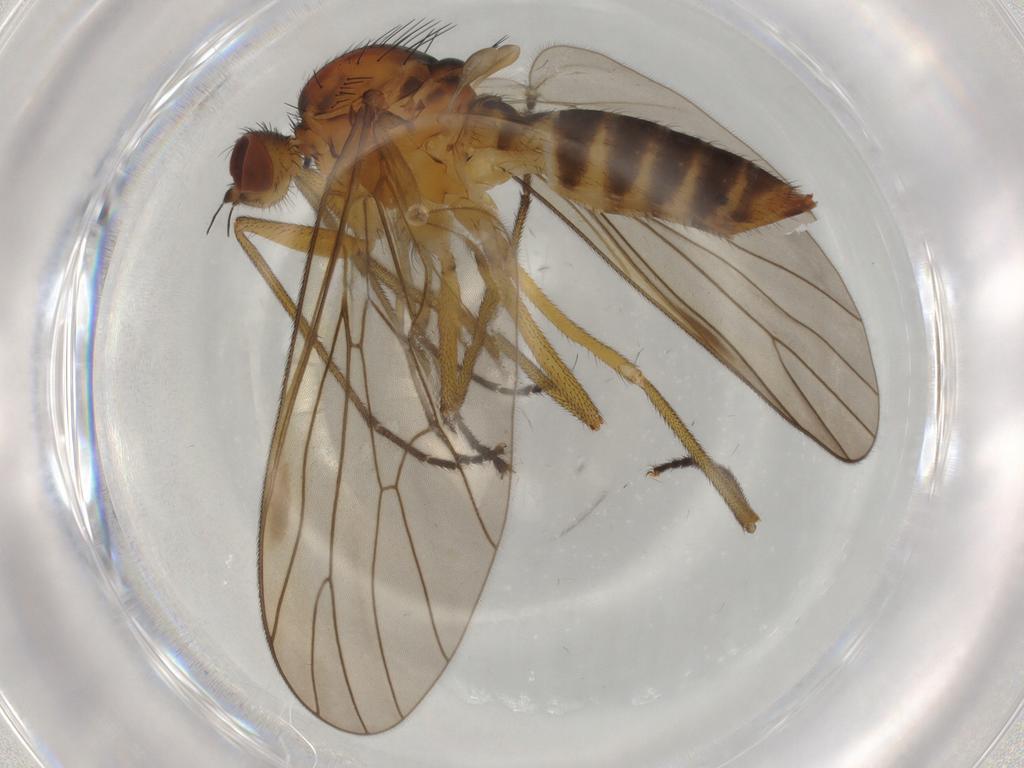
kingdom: Animalia
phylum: Arthropoda
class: Insecta
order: Diptera
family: Brachystomatidae
